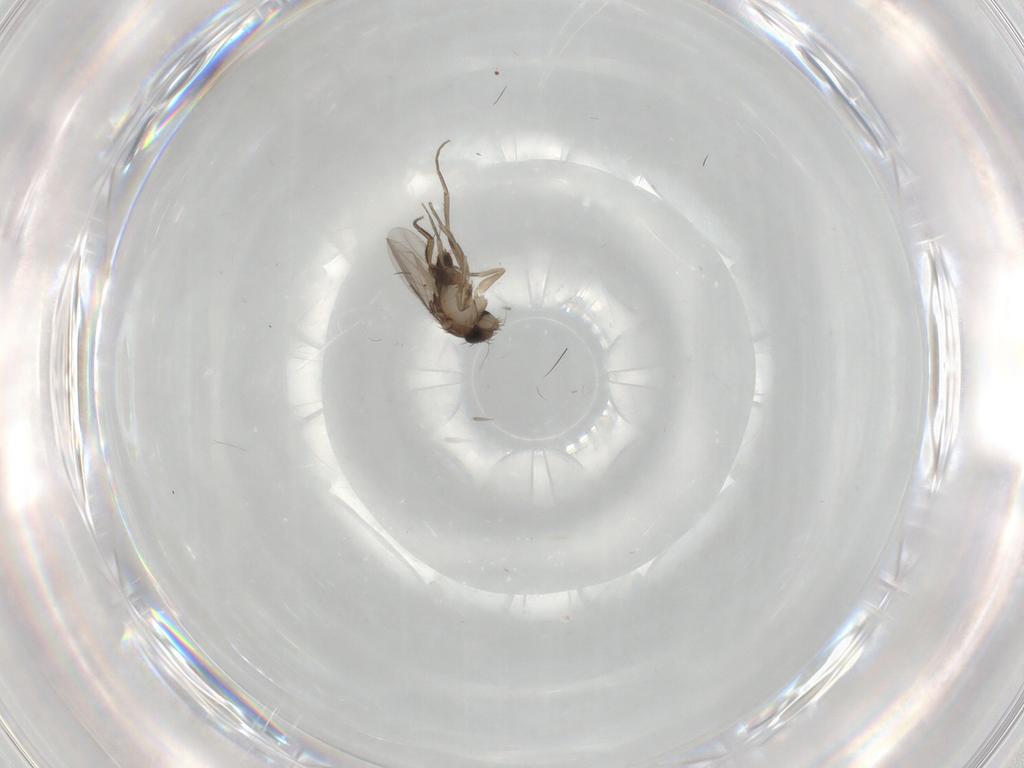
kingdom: Animalia
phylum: Arthropoda
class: Insecta
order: Diptera
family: Phoridae
